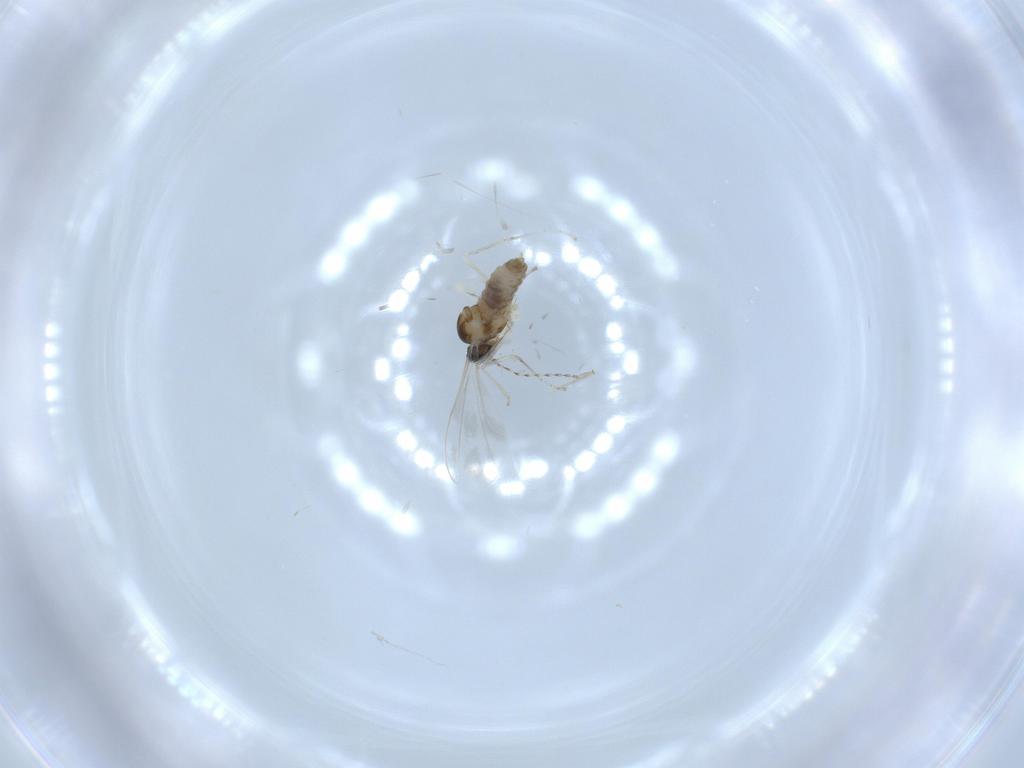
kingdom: Animalia
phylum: Arthropoda
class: Insecta
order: Diptera
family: Cecidomyiidae
